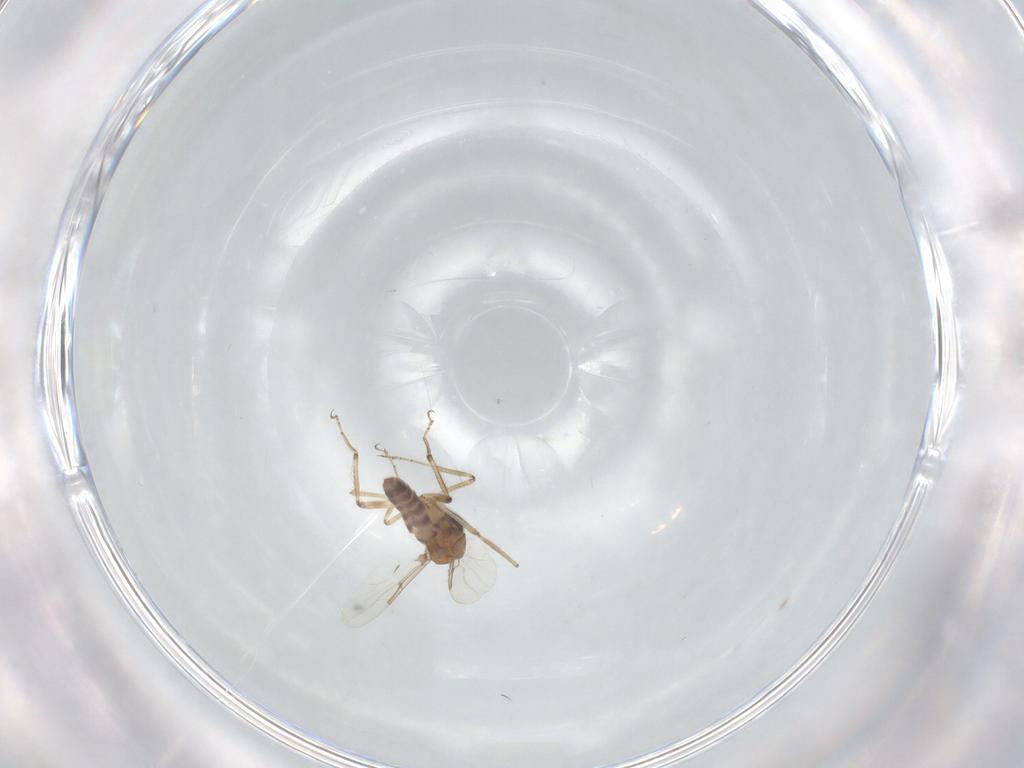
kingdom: Animalia
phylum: Arthropoda
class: Insecta
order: Diptera
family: Ceratopogonidae
